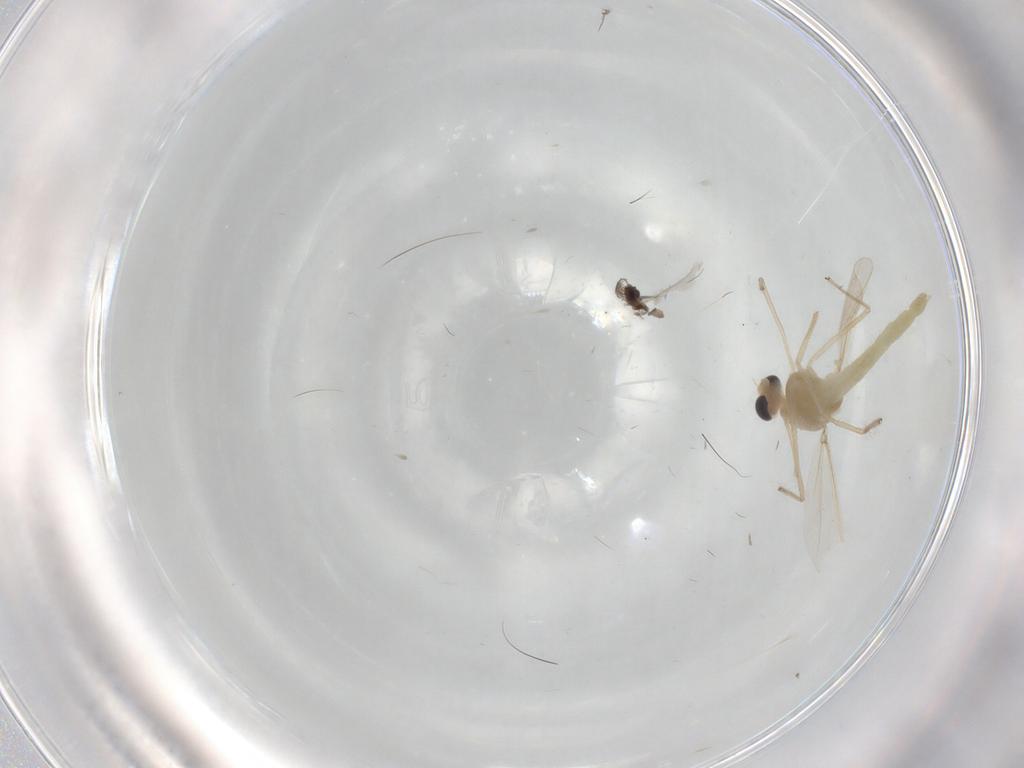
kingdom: Animalia
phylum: Arthropoda
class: Insecta
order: Diptera
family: Chironomidae
